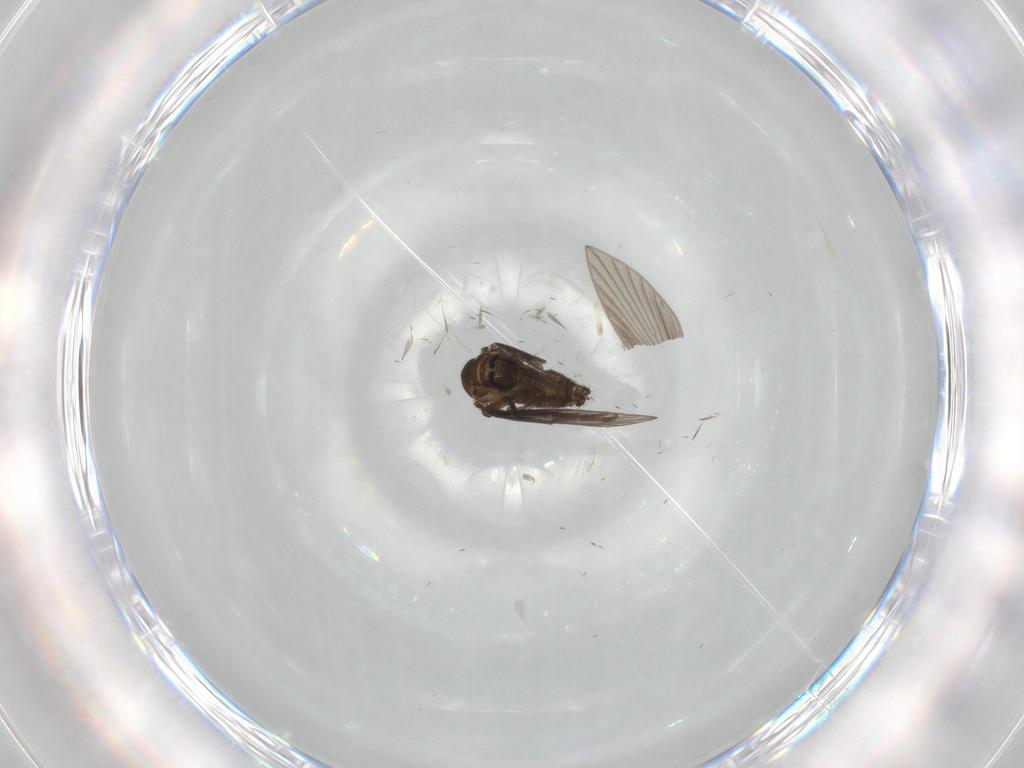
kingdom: Animalia
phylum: Arthropoda
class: Insecta
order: Diptera
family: Psychodidae
